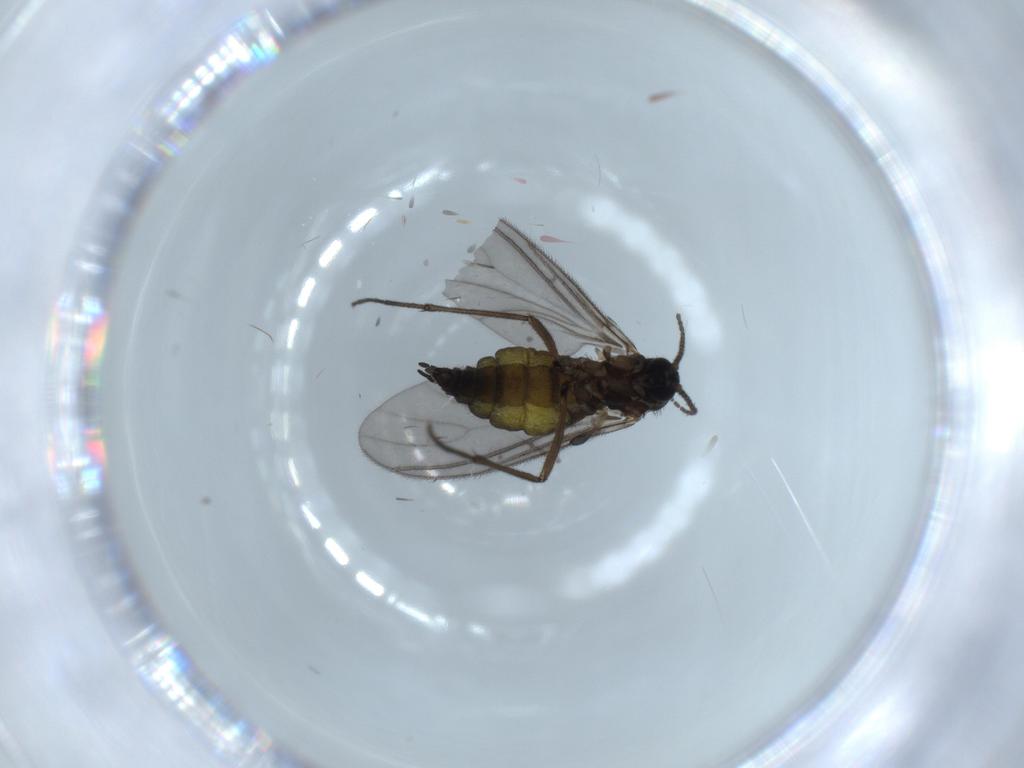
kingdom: Animalia
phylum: Arthropoda
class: Insecta
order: Diptera
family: Sciaridae
